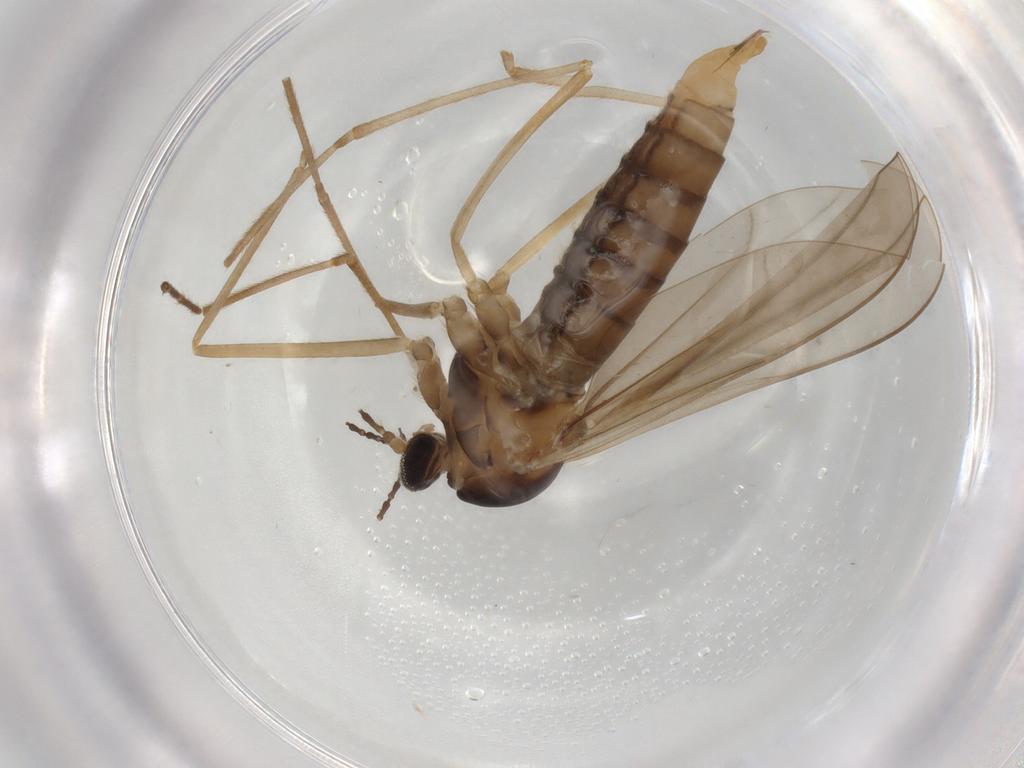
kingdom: Animalia
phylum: Arthropoda
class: Insecta
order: Diptera
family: Cecidomyiidae
